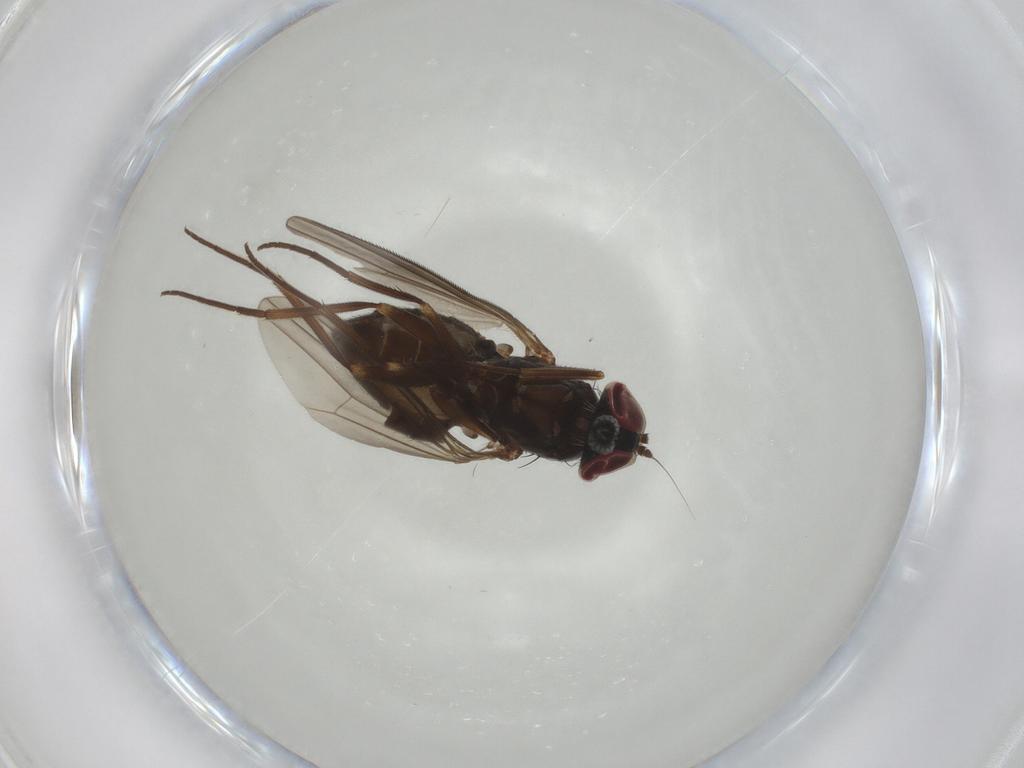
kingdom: Animalia
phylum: Arthropoda
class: Insecta
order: Diptera
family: Dolichopodidae
